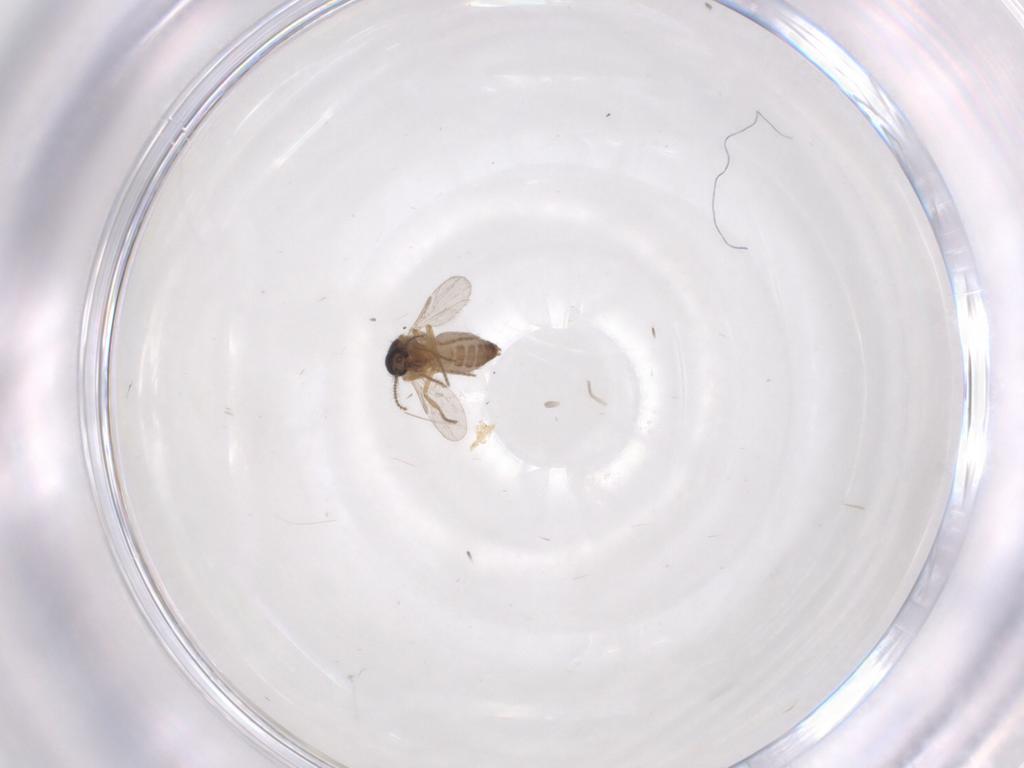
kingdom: Animalia
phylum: Arthropoda
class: Insecta
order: Diptera
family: Ceratopogonidae
